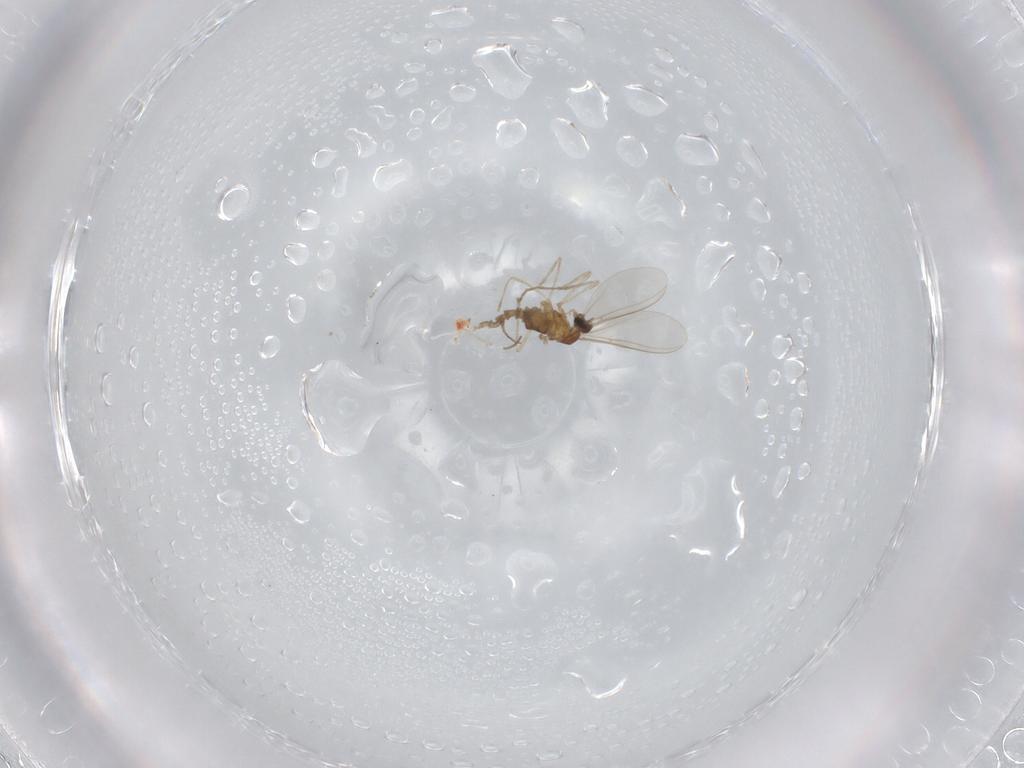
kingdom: Animalia
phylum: Arthropoda
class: Insecta
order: Diptera
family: Cecidomyiidae
